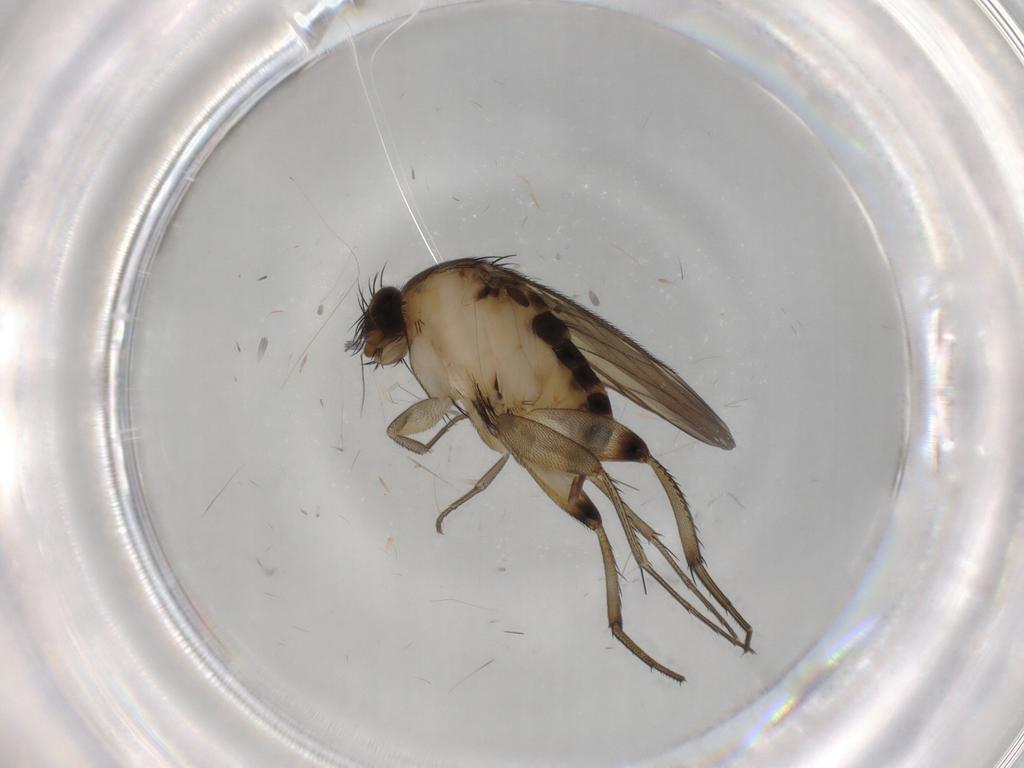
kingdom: Animalia
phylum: Arthropoda
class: Insecta
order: Diptera
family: Phoridae
